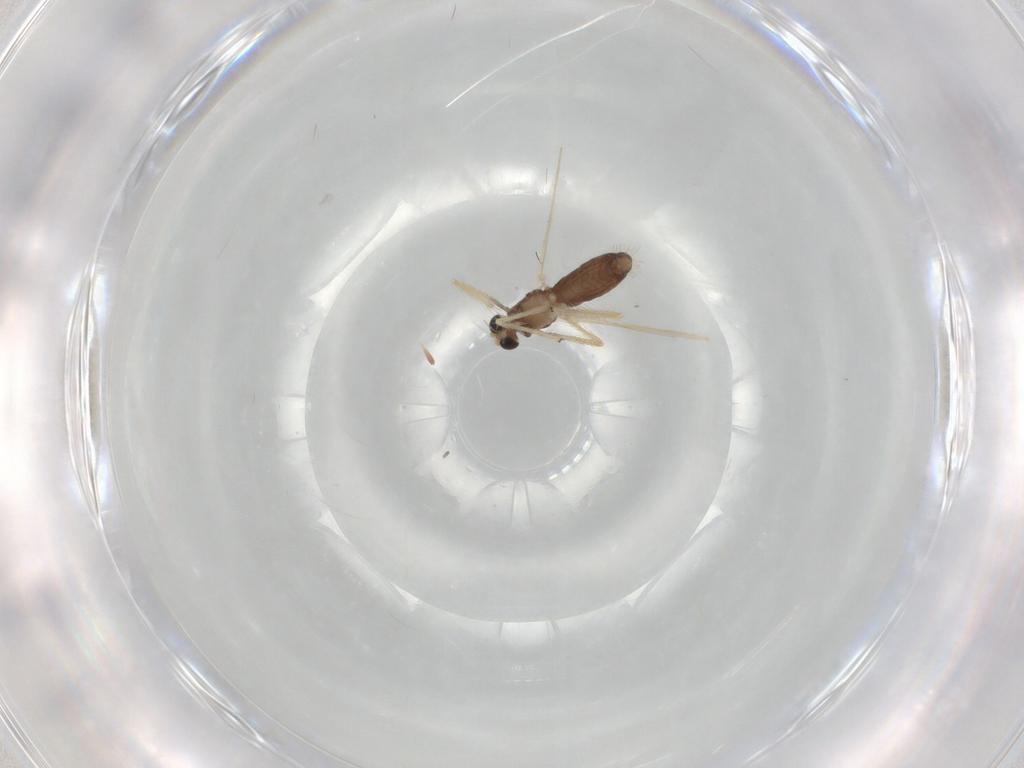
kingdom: Animalia
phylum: Arthropoda
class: Insecta
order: Diptera
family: Chironomidae
